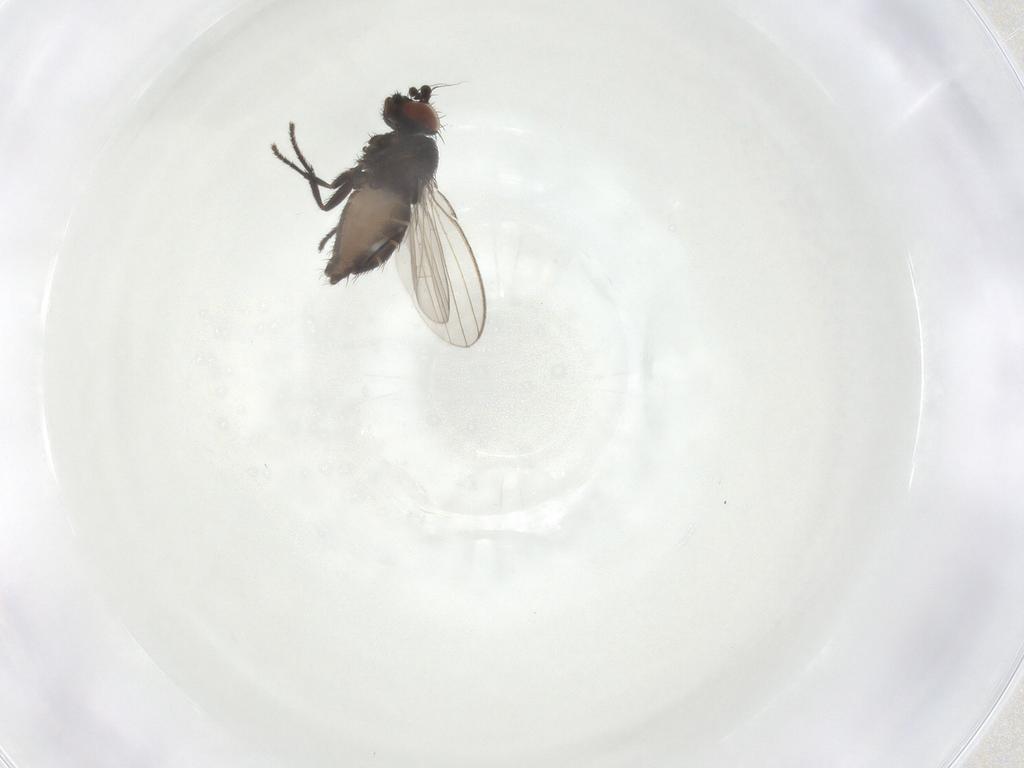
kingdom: Animalia
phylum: Arthropoda
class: Insecta
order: Diptera
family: Milichiidae
